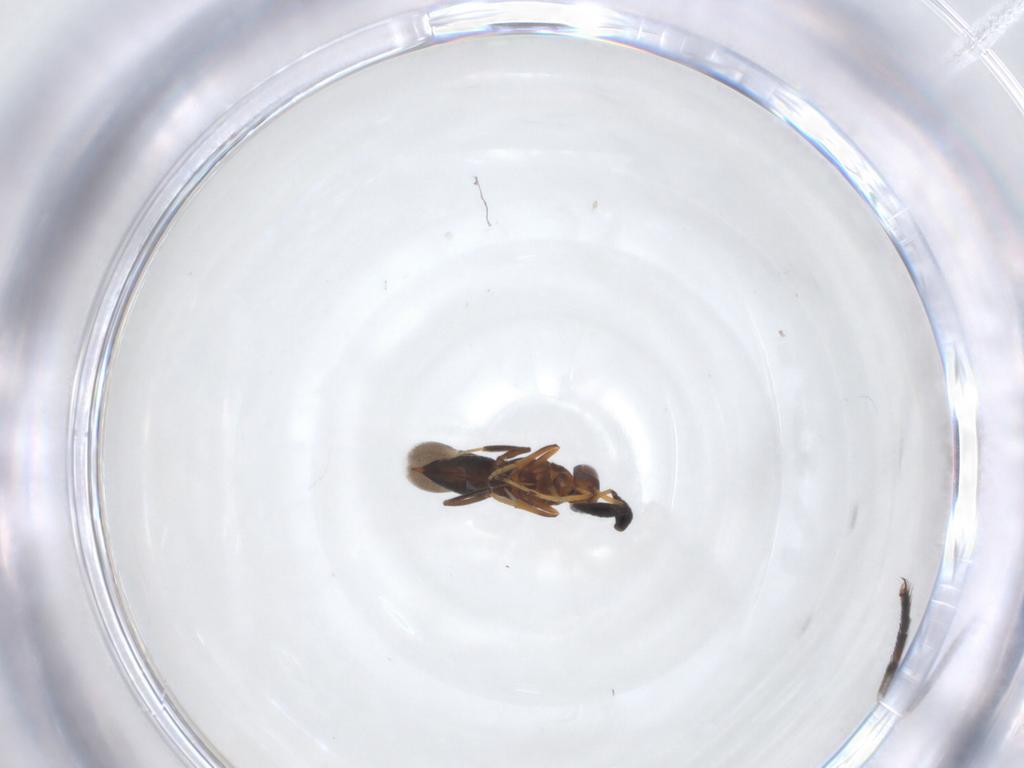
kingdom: Animalia
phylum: Arthropoda
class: Insecta
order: Hymenoptera
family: Encyrtidae
